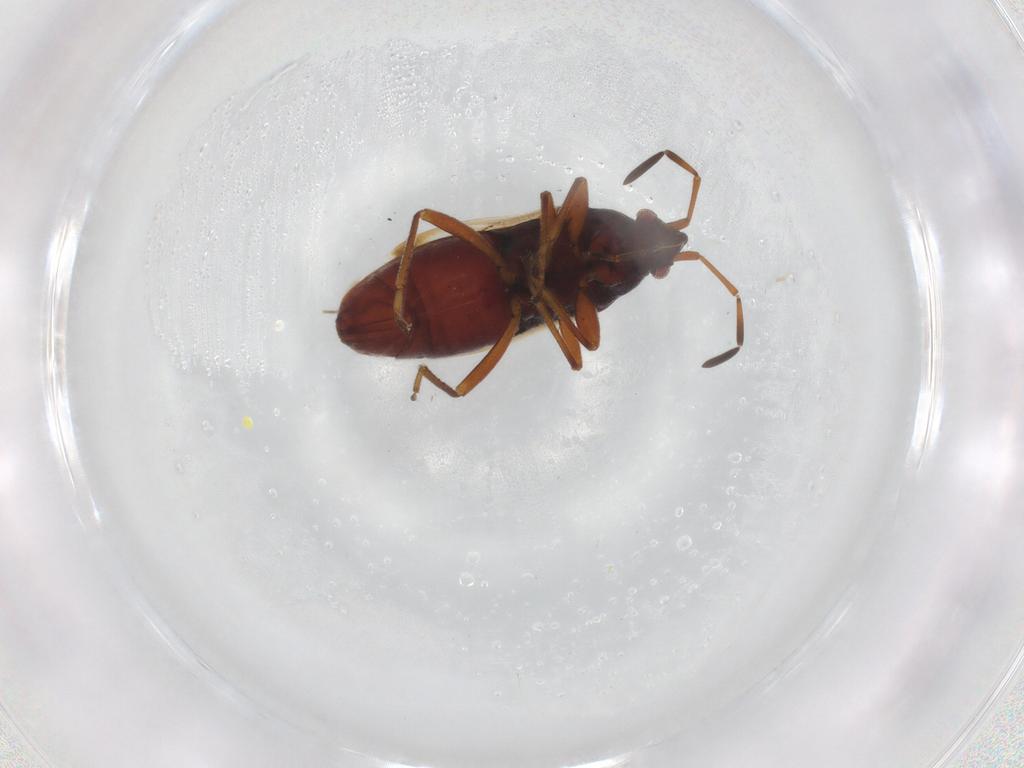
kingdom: Animalia
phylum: Arthropoda
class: Insecta
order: Hemiptera
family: Rhyparochromidae
